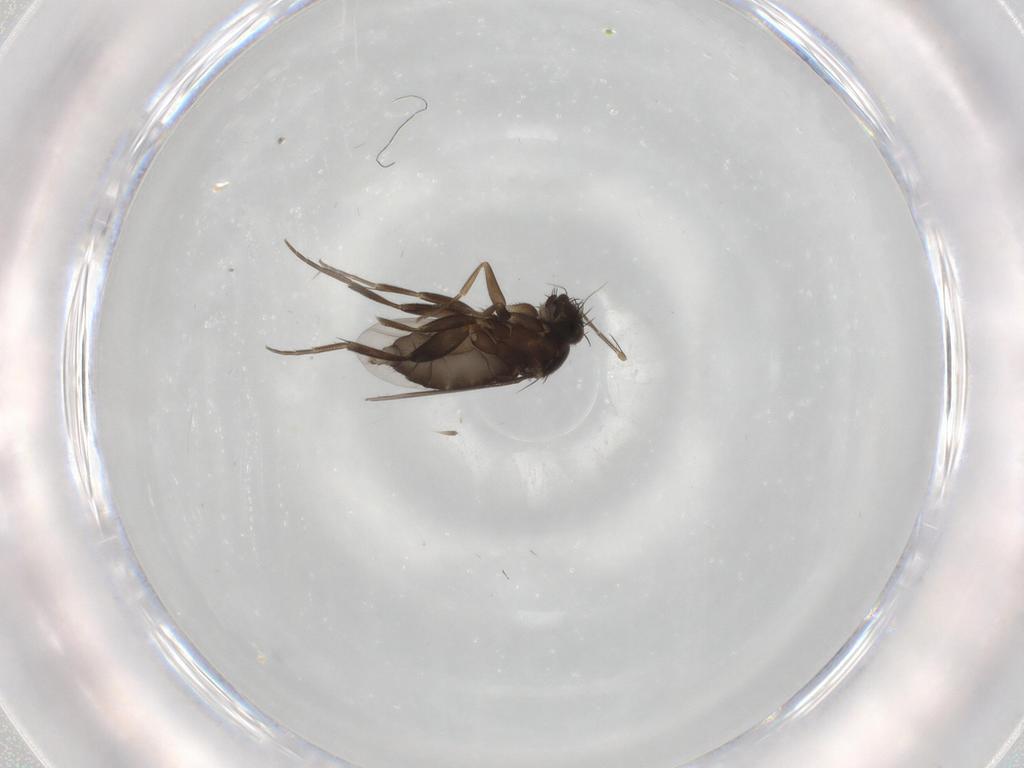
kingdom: Animalia
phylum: Arthropoda
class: Insecta
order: Diptera
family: Phoridae
